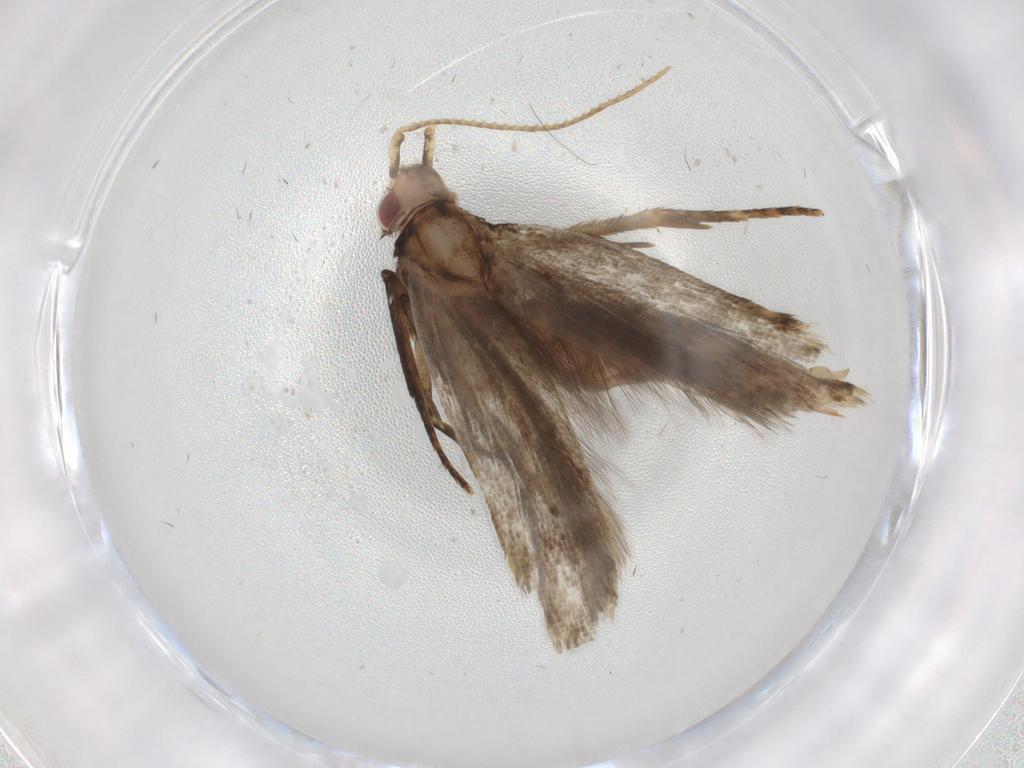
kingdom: Animalia
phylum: Arthropoda
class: Insecta
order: Lepidoptera
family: Gelechiidae
